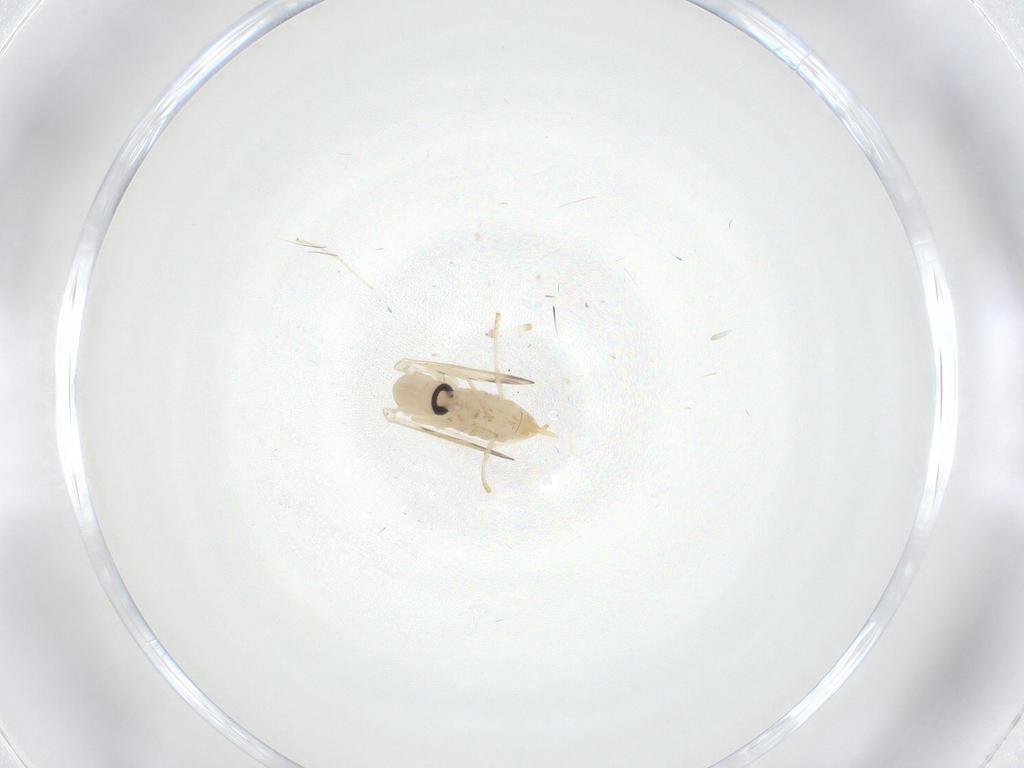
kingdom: Animalia
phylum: Arthropoda
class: Insecta
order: Diptera
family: Psychodidae
